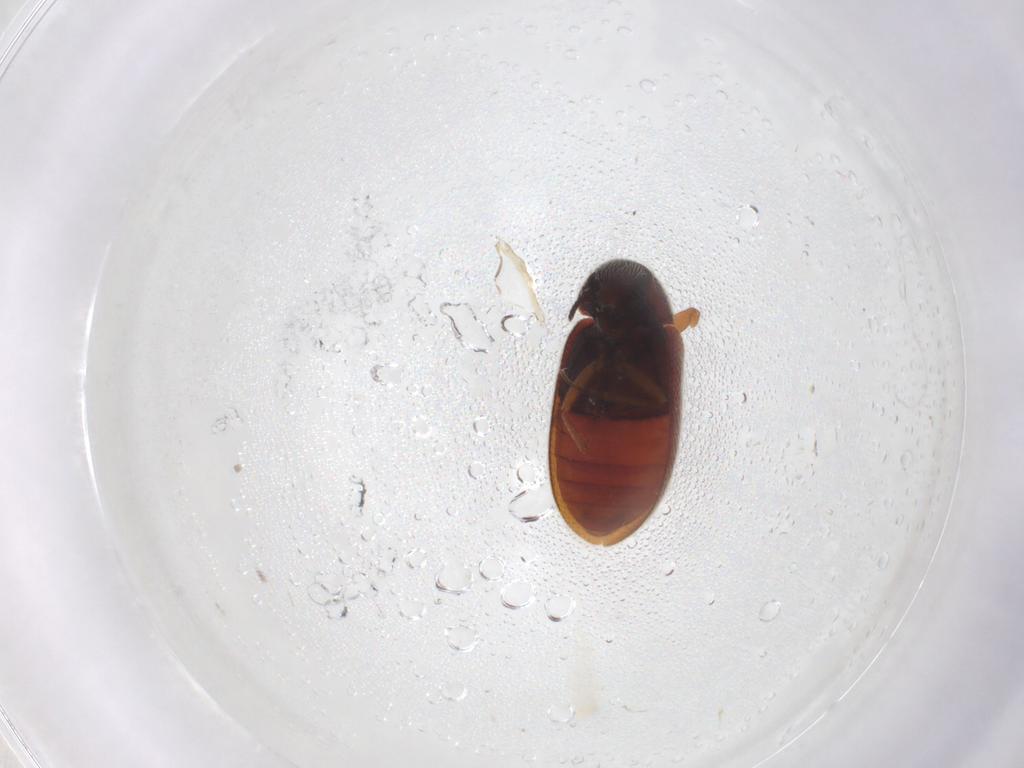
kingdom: Animalia
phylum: Arthropoda
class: Insecta
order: Coleoptera
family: Rhadalidae
